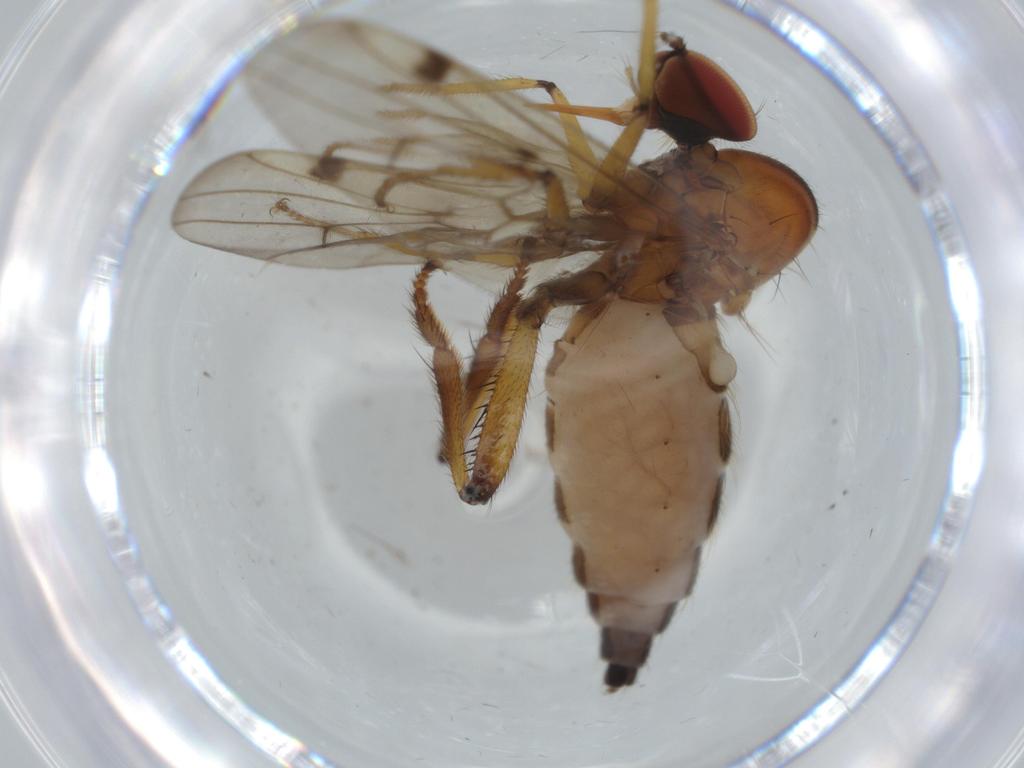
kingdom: Animalia
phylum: Arthropoda
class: Insecta
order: Diptera
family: Hybotidae
